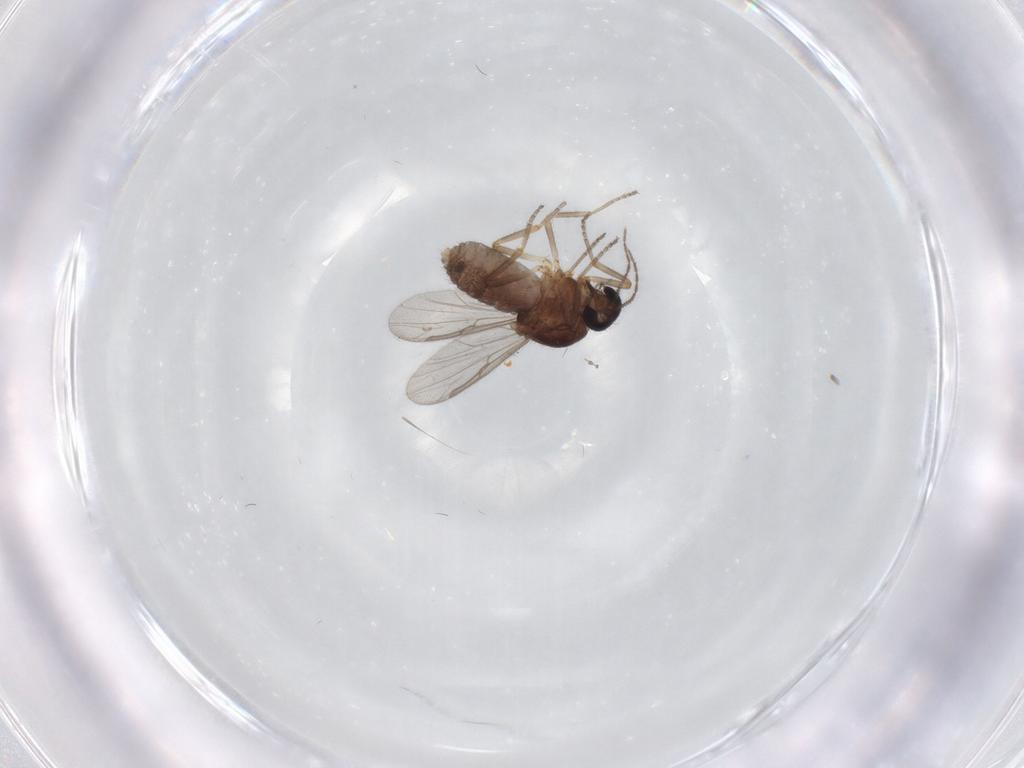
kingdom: Animalia
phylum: Arthropoda
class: Insecta
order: Diptera
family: Ceratopogonidae
